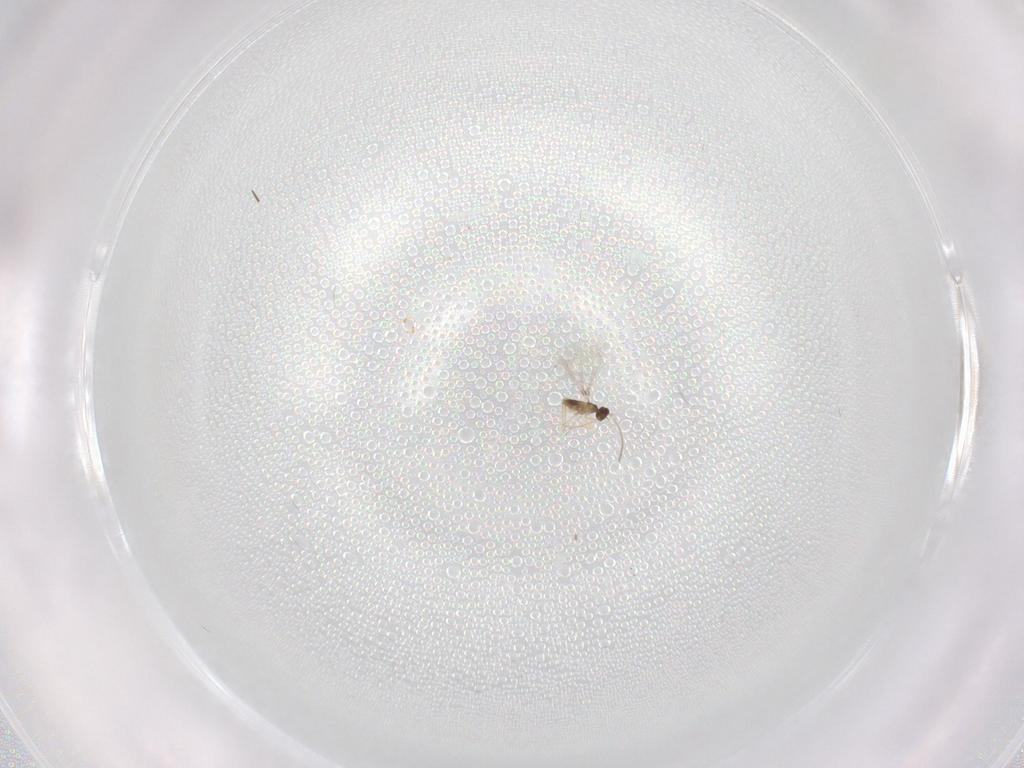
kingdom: Animalia
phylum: Arthropoda
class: Insecta
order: Hymenoptera
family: Mymaridae
